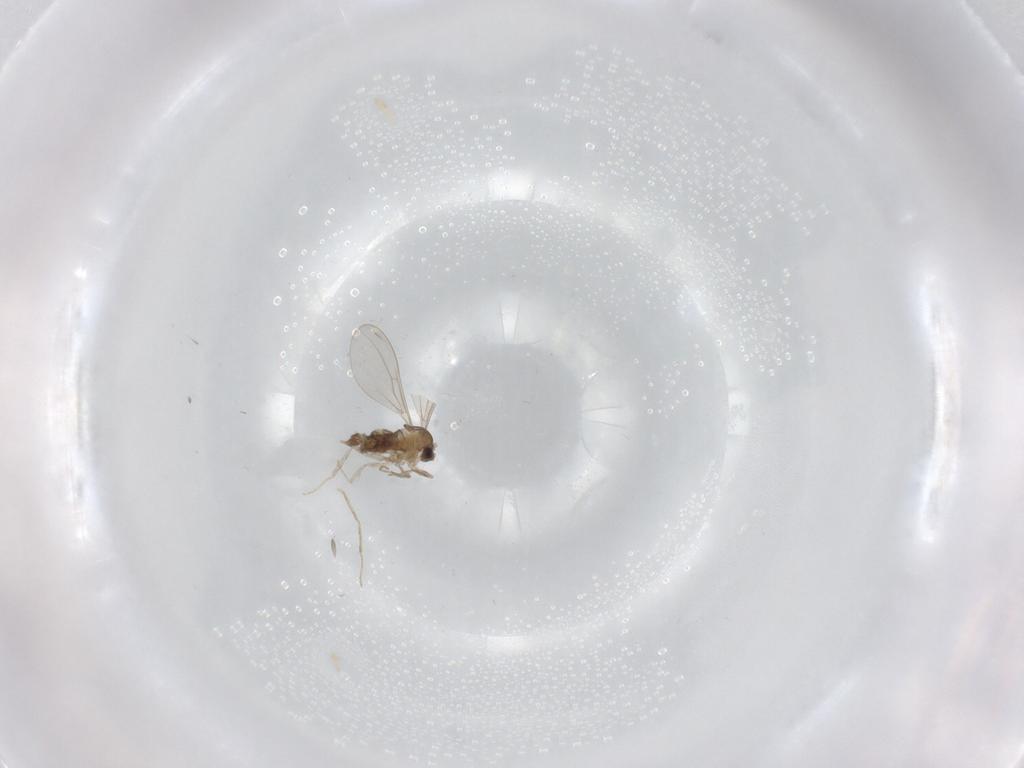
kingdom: Animalia
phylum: Arthropoda
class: Insecta
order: Diptera
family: Cecidomyiidae
